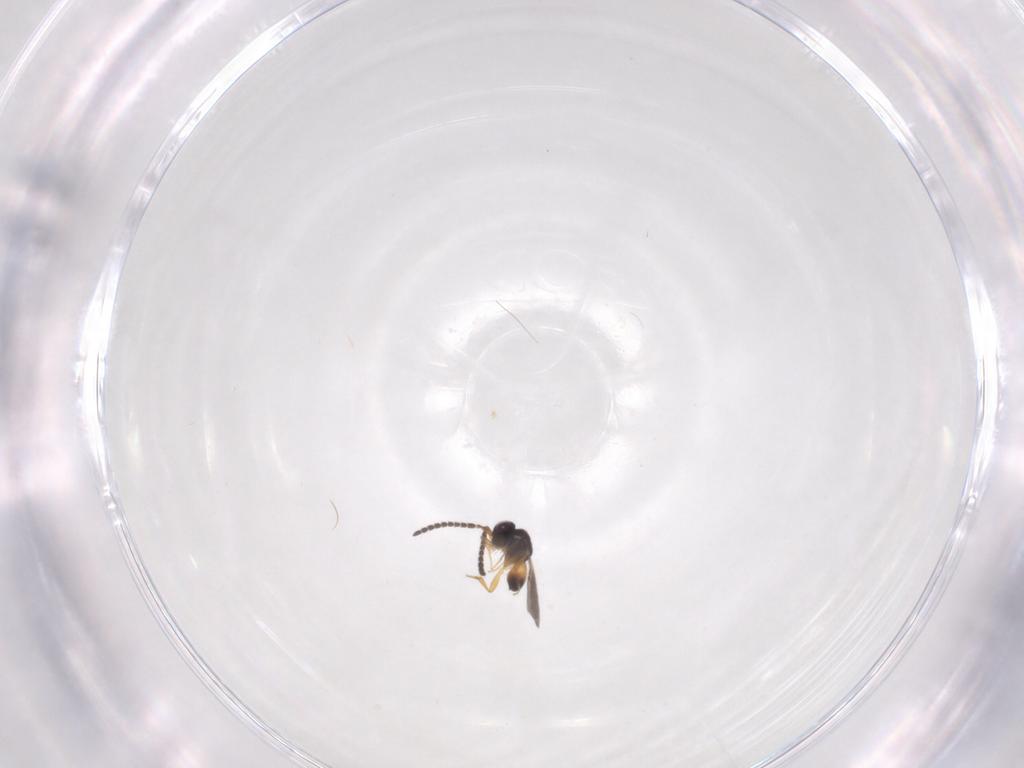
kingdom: Animalia
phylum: Arthropoda
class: Insecta
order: Hymenoptera
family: Ceraphronidae
